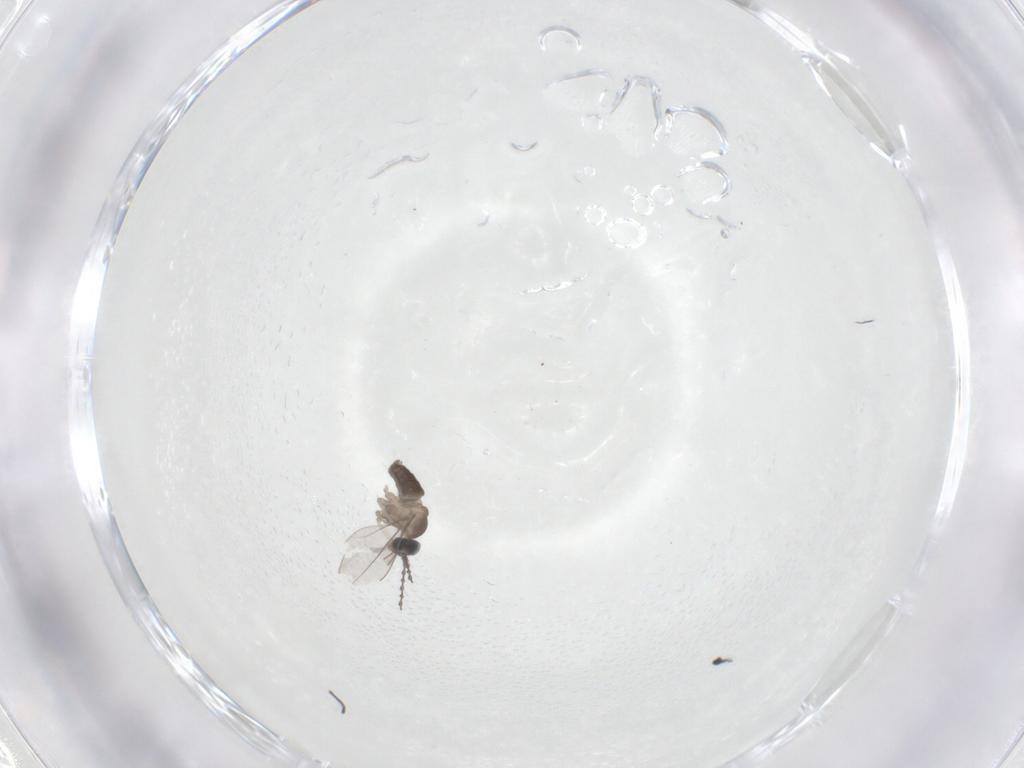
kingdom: Animalia
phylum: Arthropoda
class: Insecta
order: Diptera
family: Cecidomyiidae
